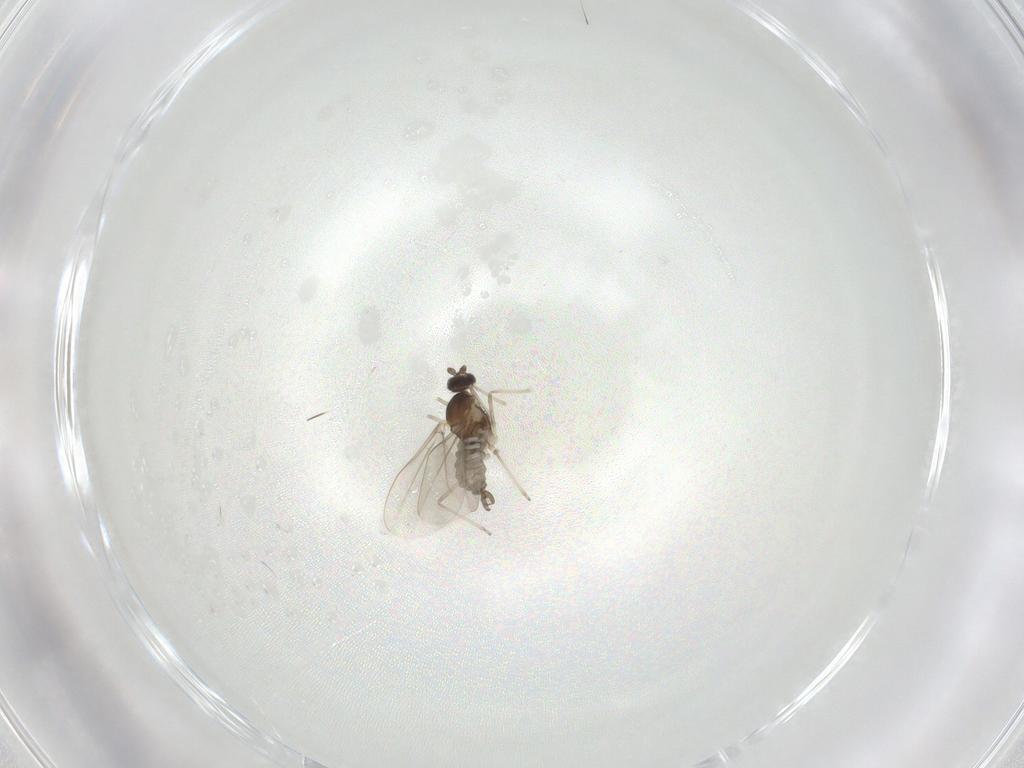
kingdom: Animalia
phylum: Arthropoda
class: Insecta
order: Diptera
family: Cecidomyiidae
